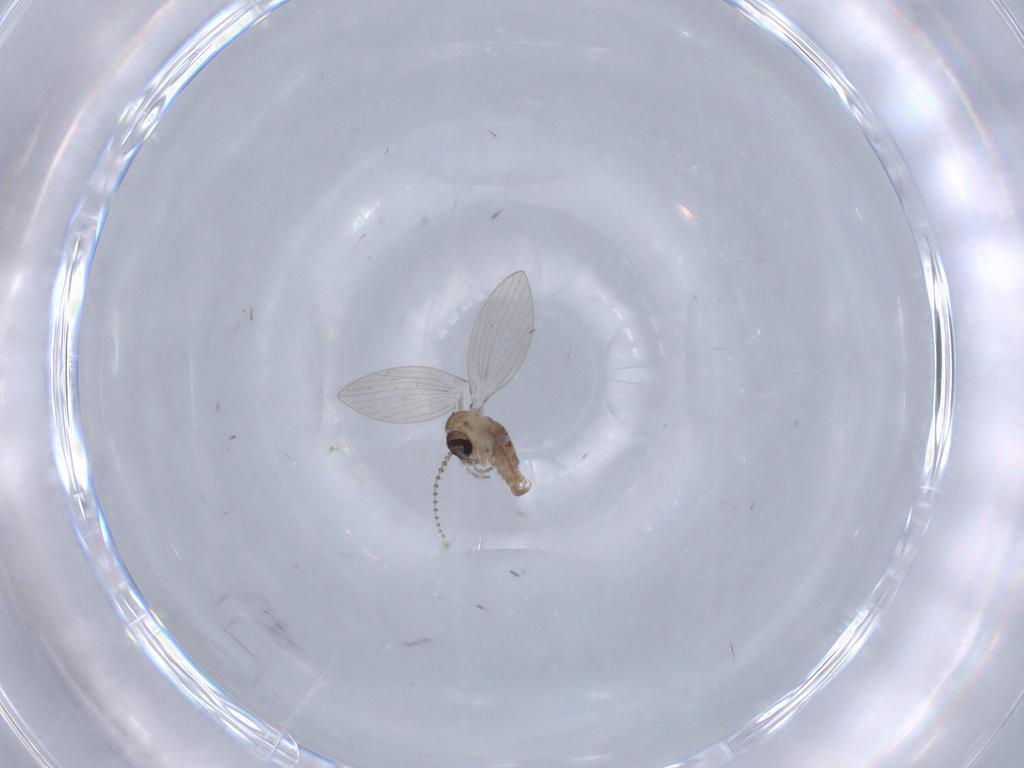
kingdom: Animalia
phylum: Arthropoda
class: Insecta
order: Diptera
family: Psychodidae
